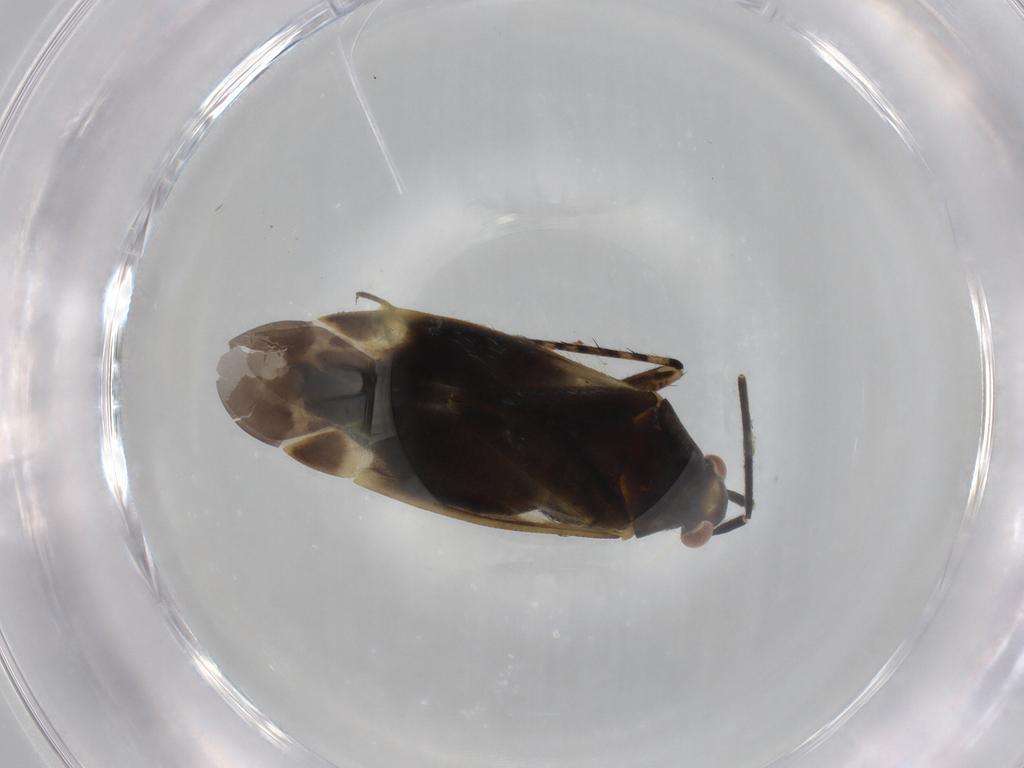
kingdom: Animalia
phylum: Arthropoda
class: Insecta
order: Hemiptera
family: Miridae
